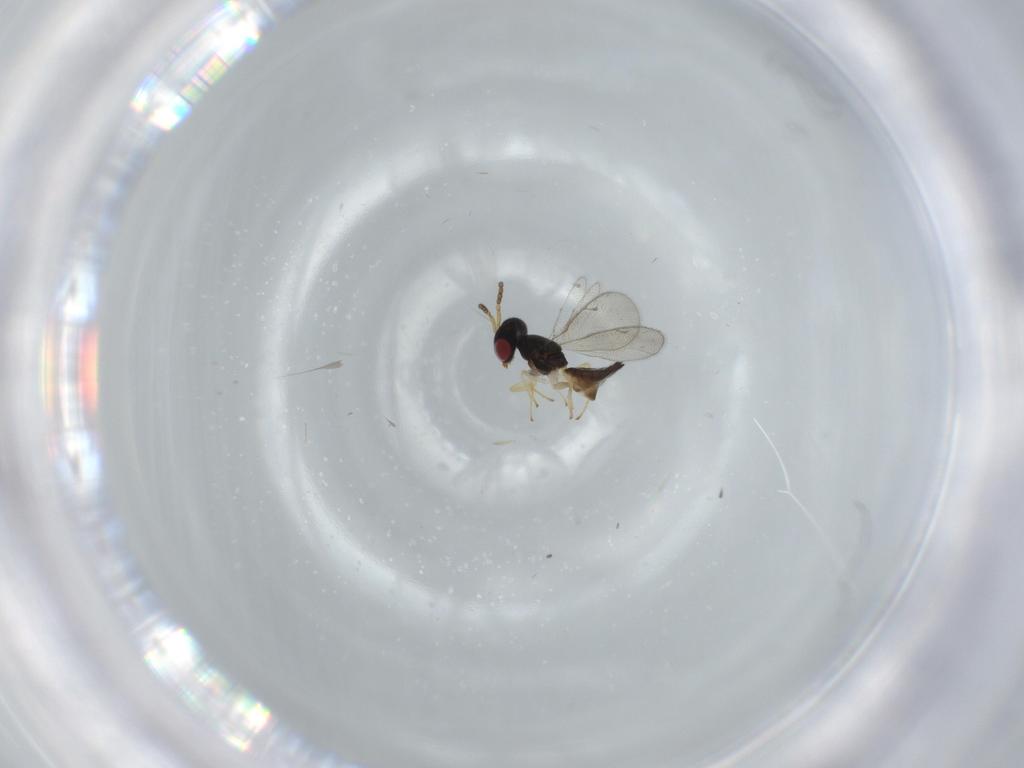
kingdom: Animalia
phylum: Arthropoda
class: Insecta
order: Hymenoptera
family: Pteromalidae
